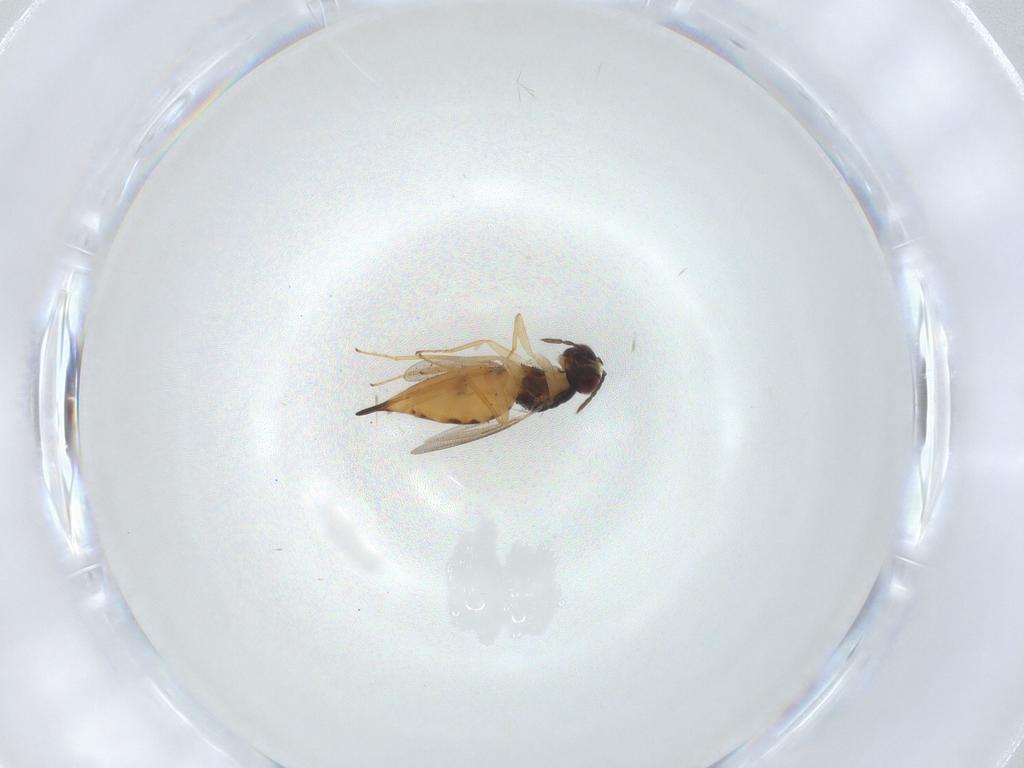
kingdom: Animalia
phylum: Arthropoda
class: Insecta
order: Hymenoptera
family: Eulophidae
